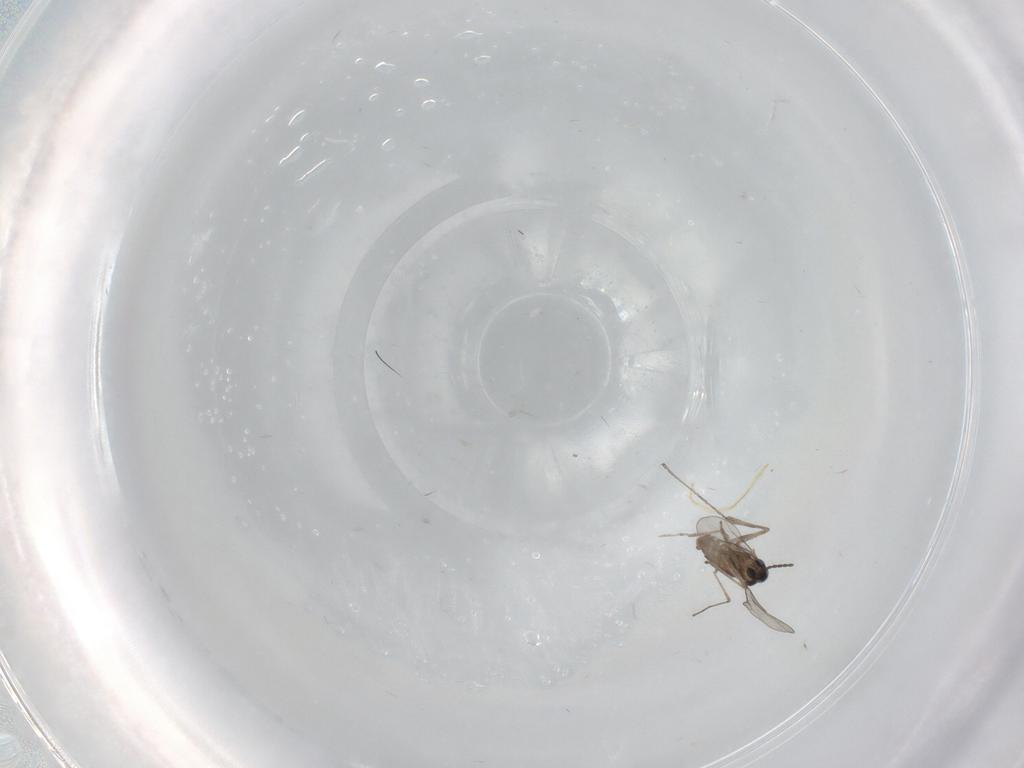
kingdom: Animalia
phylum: Arthropoda
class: Insecta
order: Diptera
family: Cecidomyiidae
